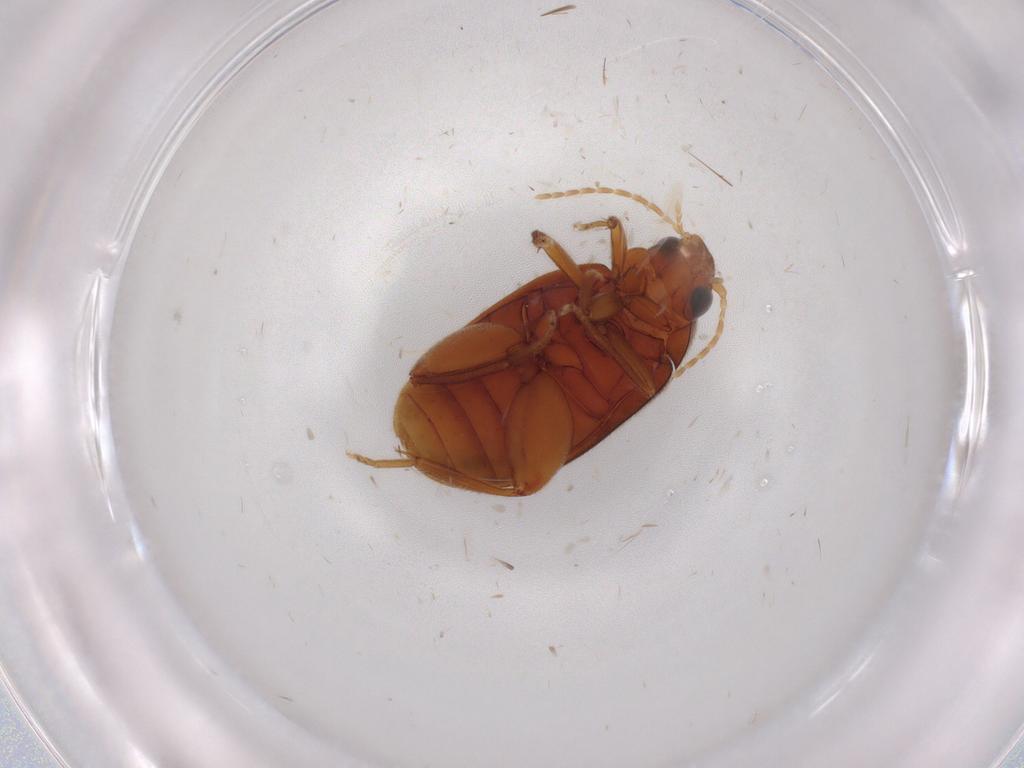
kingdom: Animalia
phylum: Arthropoda
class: Insecta
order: Coleoptera
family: Scirtidae
